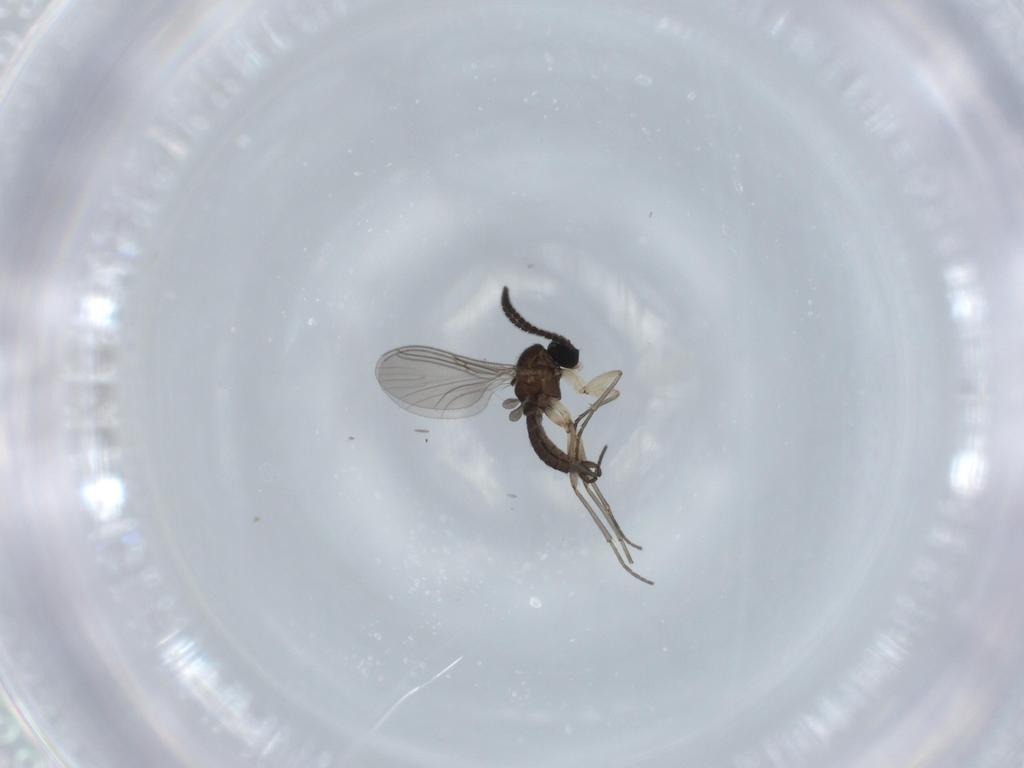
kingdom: Animalia
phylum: Arthropoda
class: Insecta
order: Diptera
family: Sciaridae
